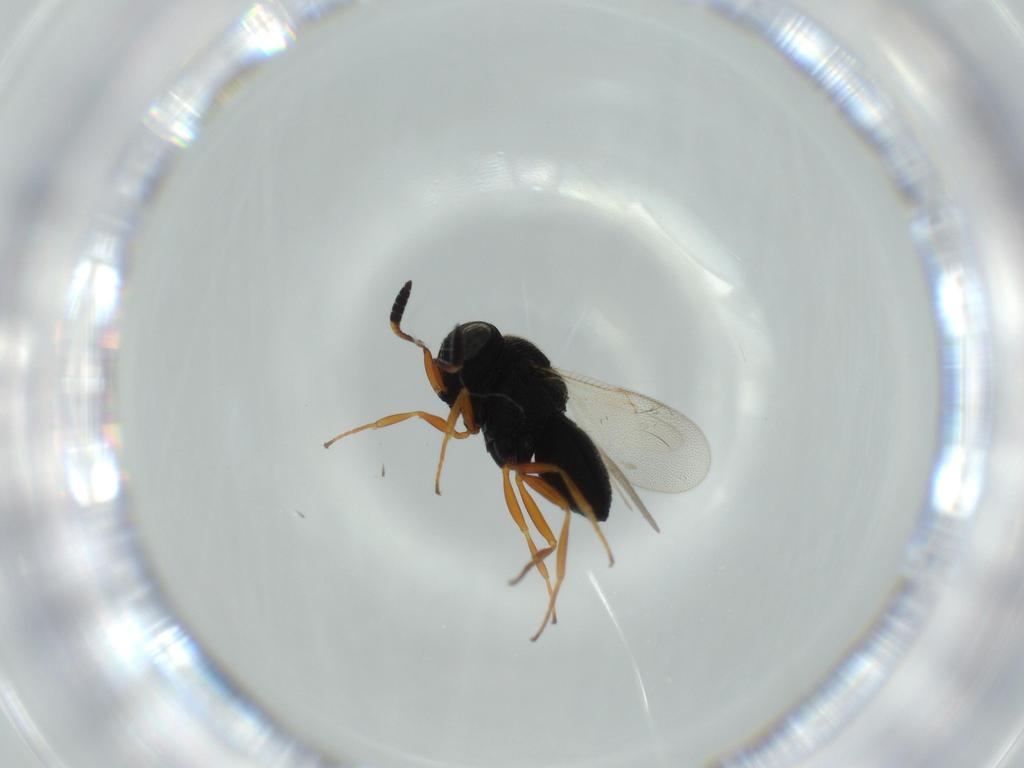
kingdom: Animalia
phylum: Arthropoda
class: Insecta
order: Hymenoptera
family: Scelionidae
